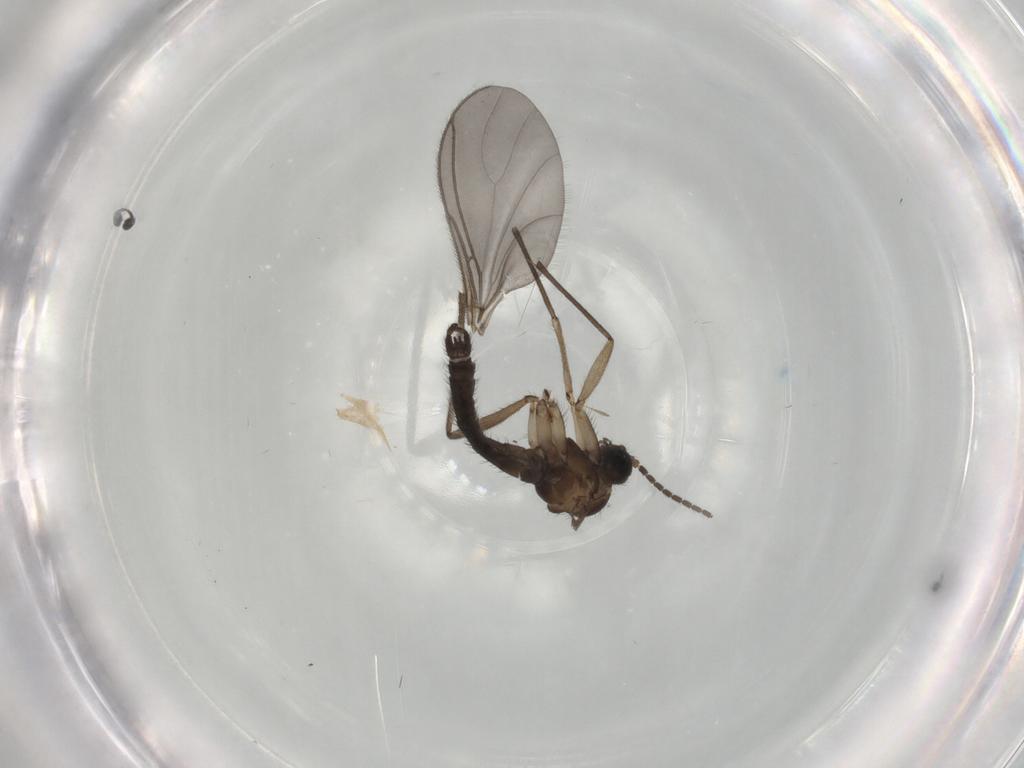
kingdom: Animalia
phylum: Arthropoda
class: Insecta
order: Diptera
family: Sciaridae
